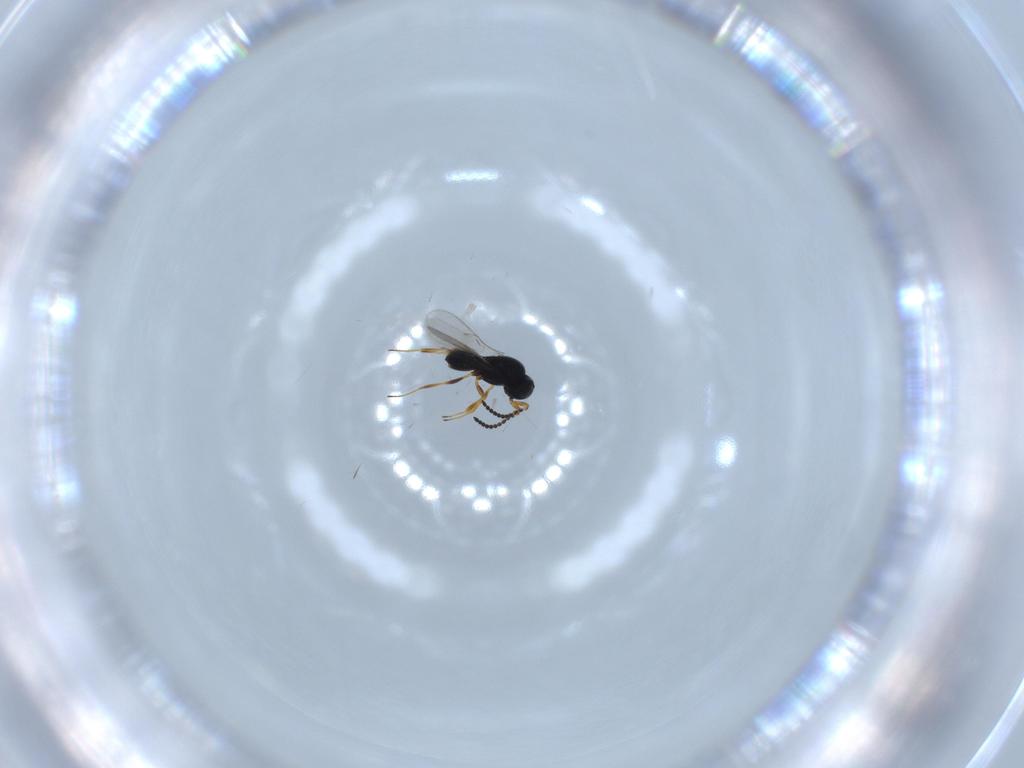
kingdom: Animalia
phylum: Arthropoda
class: Insecta
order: Hymenoptera
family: Scelionidae
